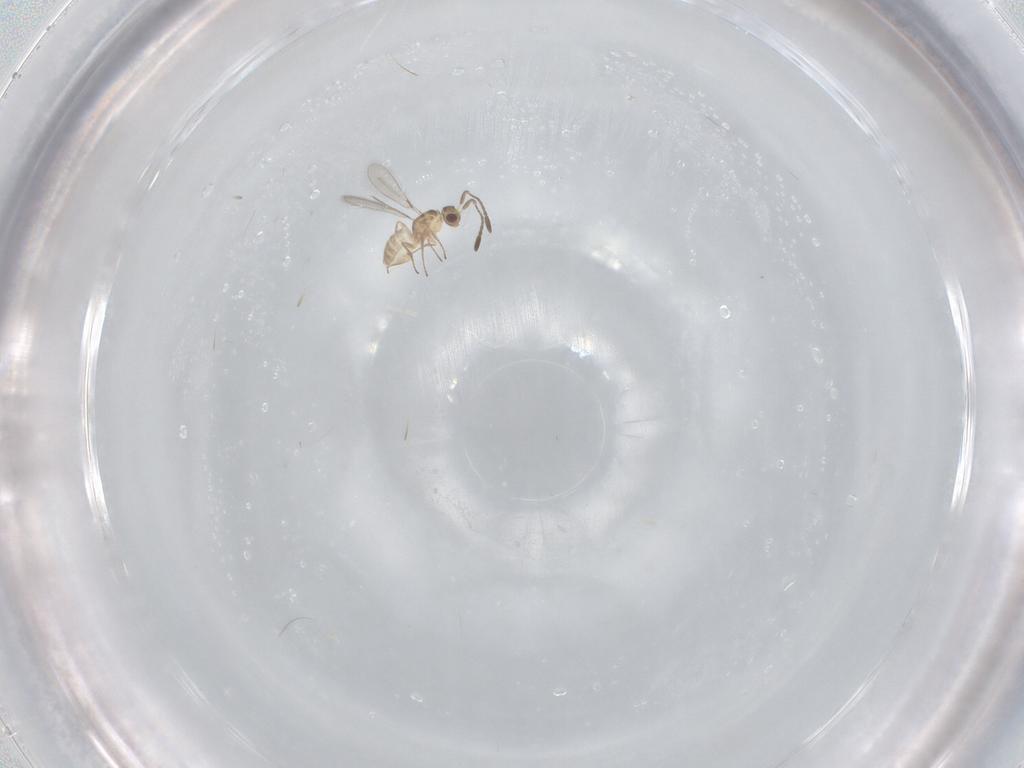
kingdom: Animalia
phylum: Arthropoda
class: Insecta
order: Hymenoptera
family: Mymaridae
